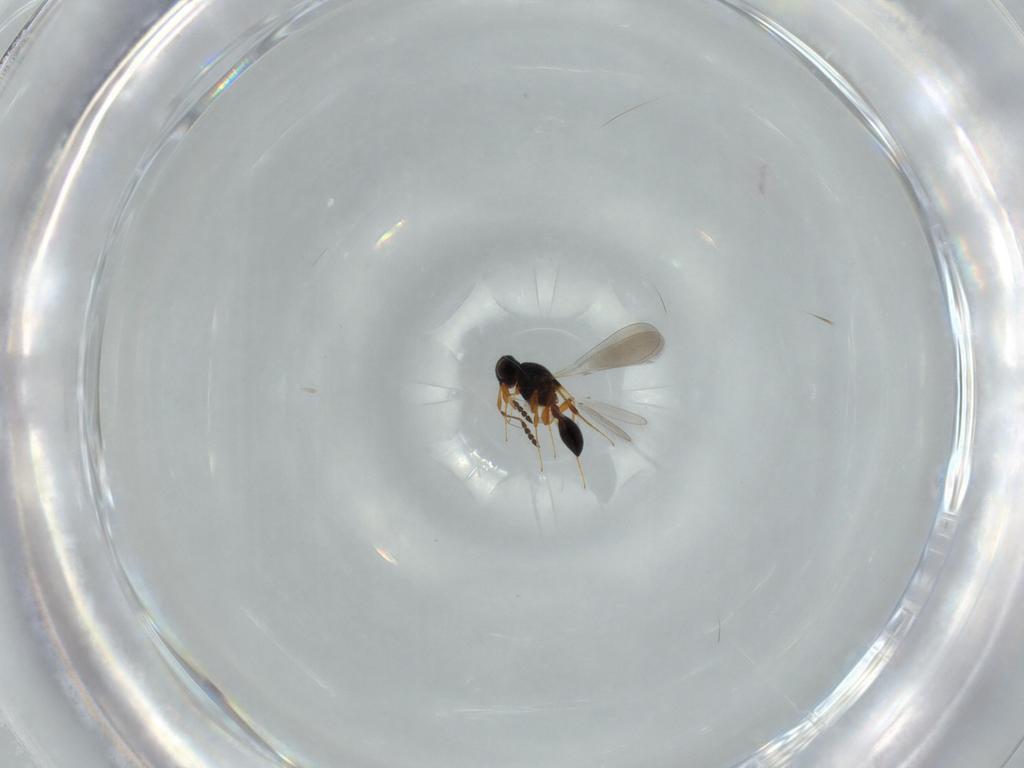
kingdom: Animalia
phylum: Arthropoda
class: Insecta
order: Hymenoptera
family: Platygastridae
